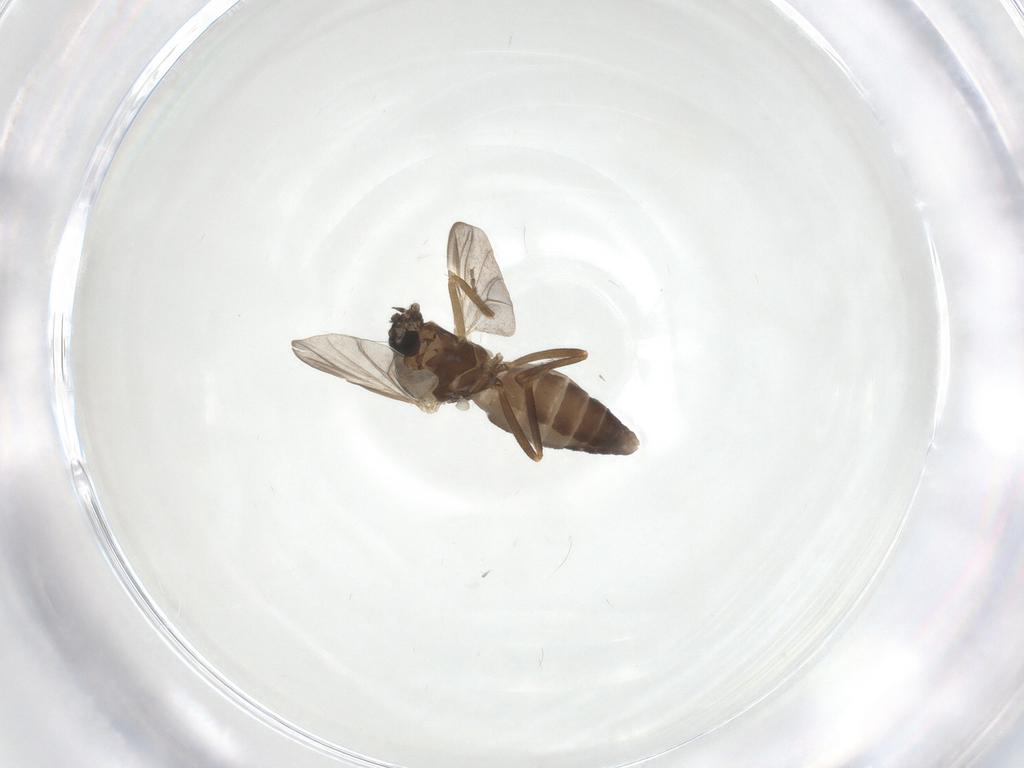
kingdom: Animalia
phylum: Arthropoda
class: Insecta
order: Diptera
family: Ceratopogonidae
